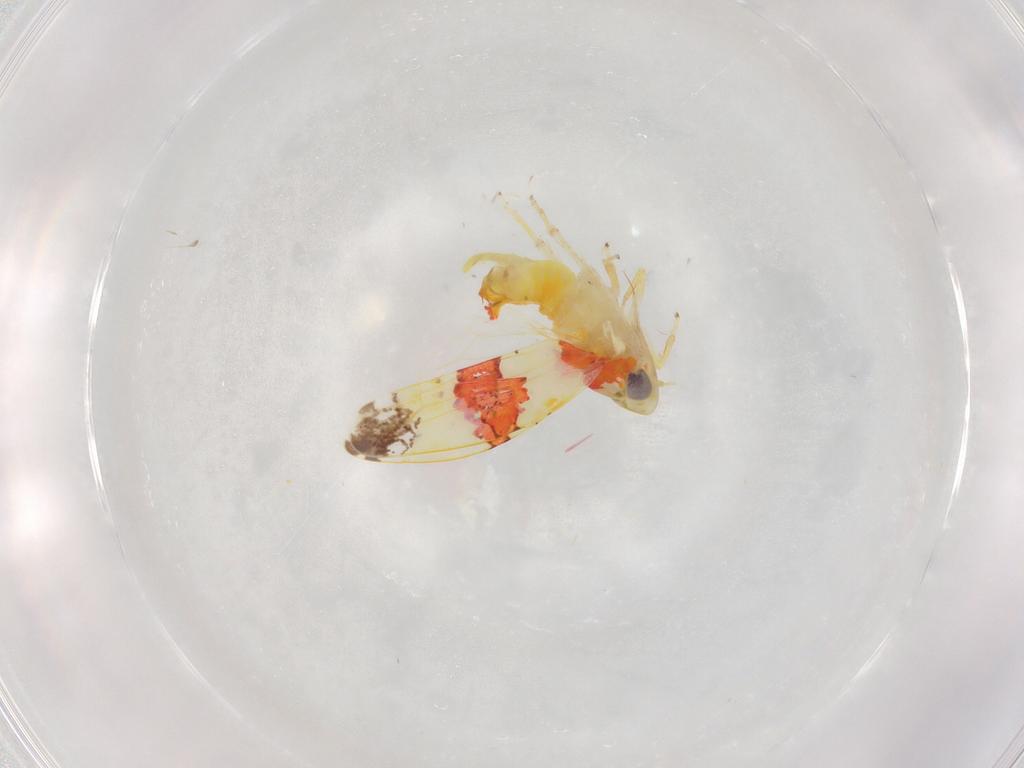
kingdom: Animalia
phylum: Arthropoda
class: Insecta
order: Hemiptera
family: Cicadellidae
